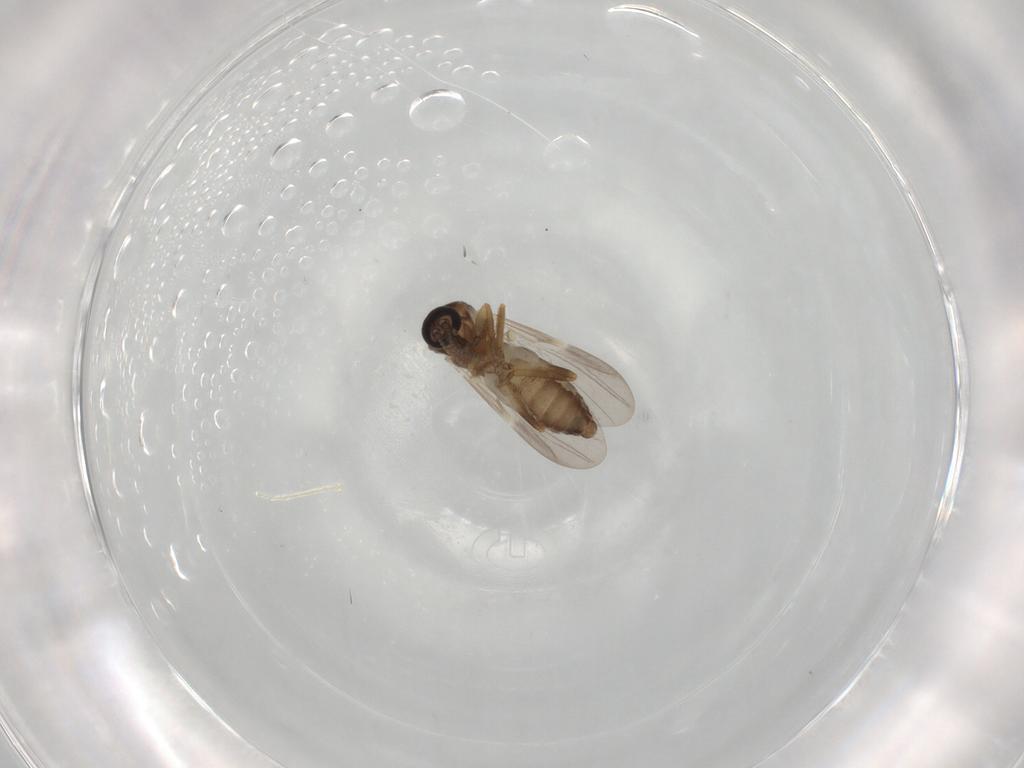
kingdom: Animalia
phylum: Arthropoda
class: Insecta
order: Diptera
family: Ceratopogonidae
